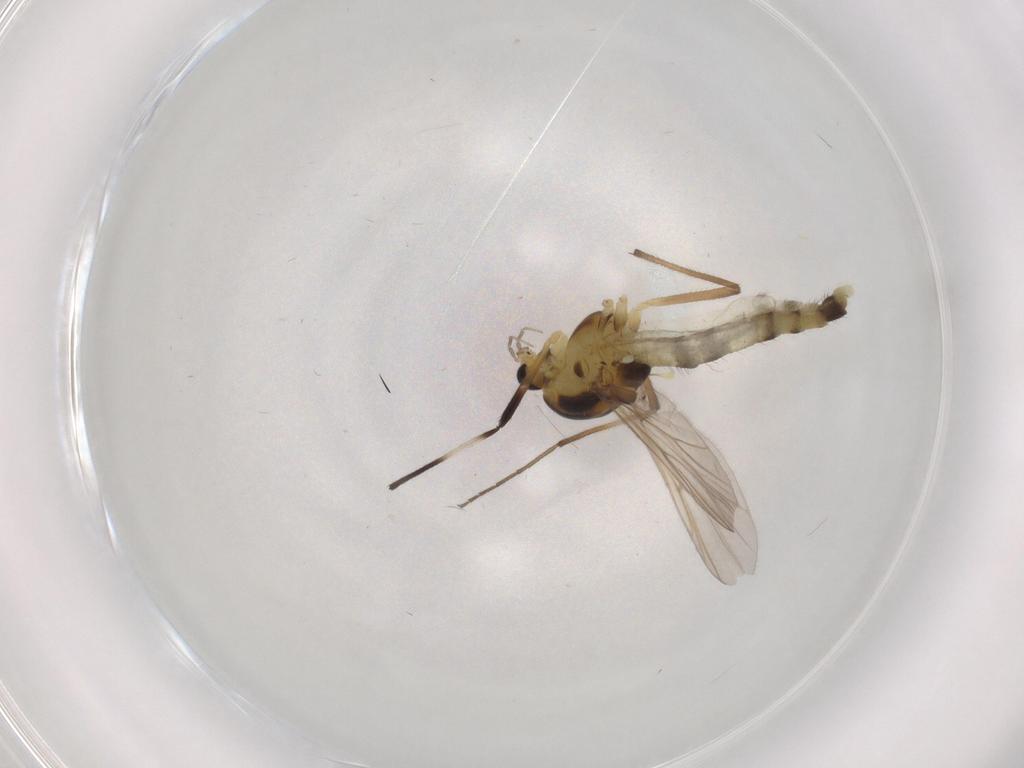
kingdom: Animalia
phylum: Arthropoda
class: Insecta
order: Diptera
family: Chironomidae
